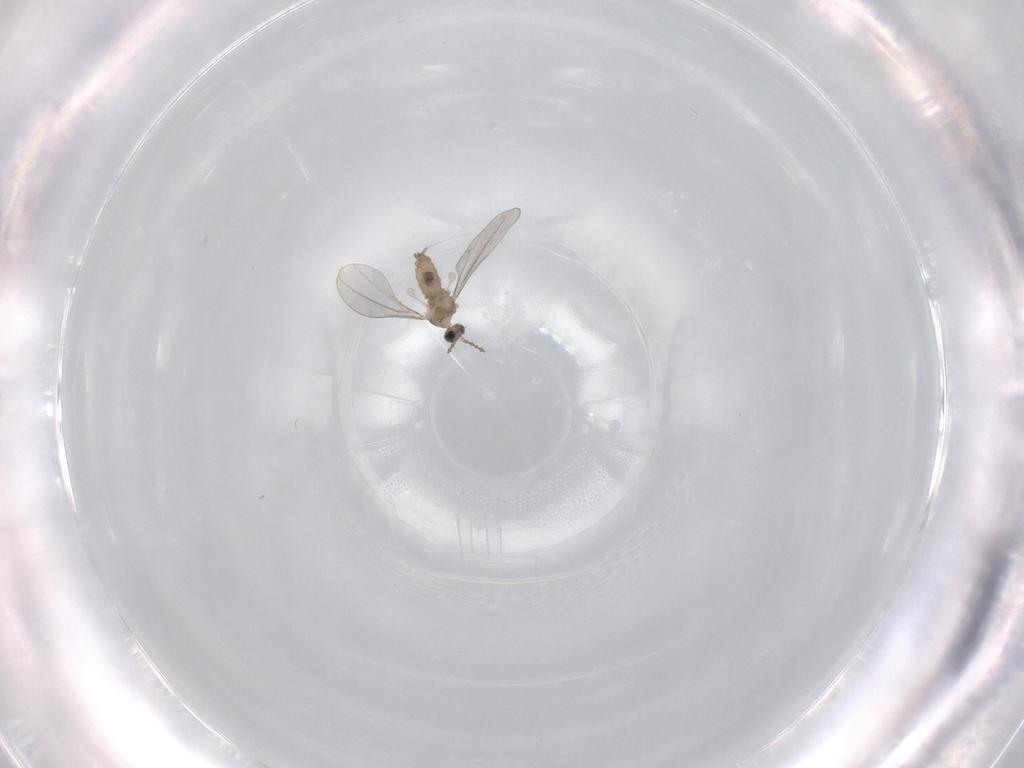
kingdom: Animalia
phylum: Arthropoda
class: Insecta
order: Diptera
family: Cecidomyiidae
